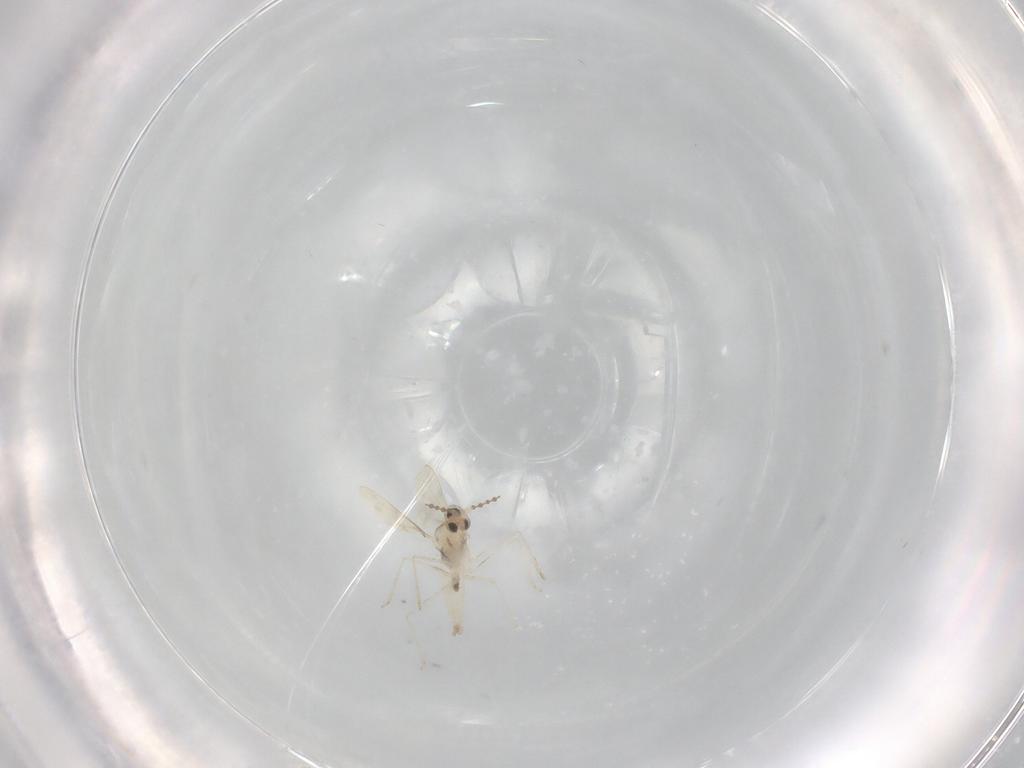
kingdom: Animalia
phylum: Arthropoda
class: Insecta
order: Diptera
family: Cecidomyiidae
